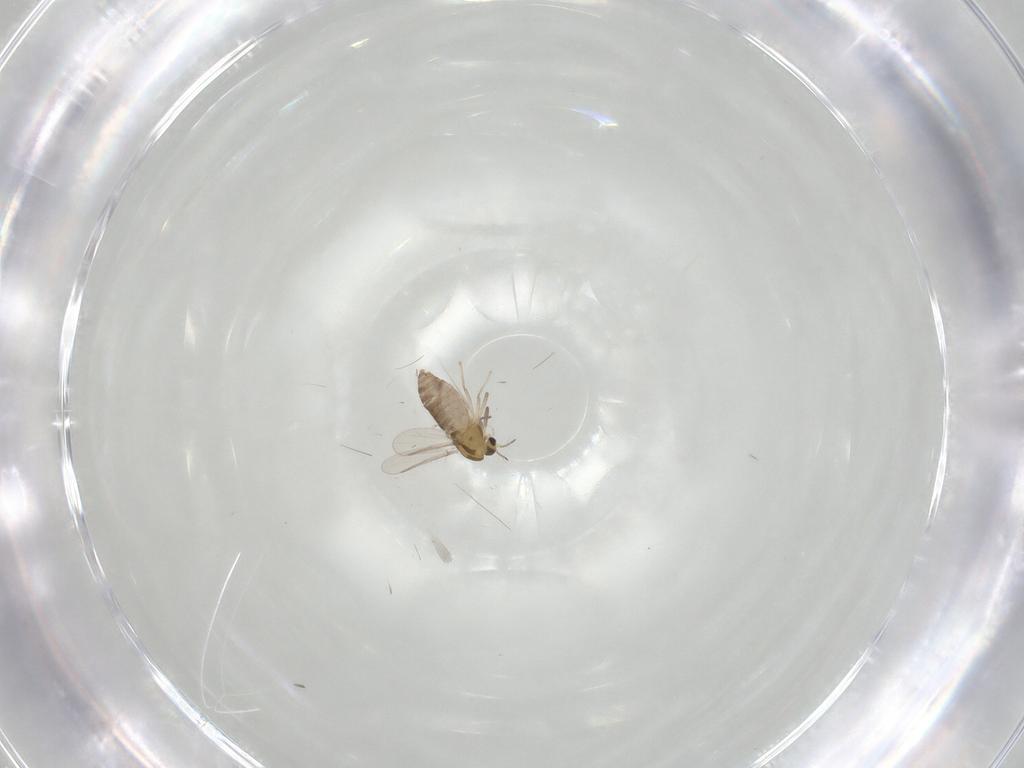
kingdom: Animalia
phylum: Arthropoda
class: Insecta
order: Diptera
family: Chironomidae
